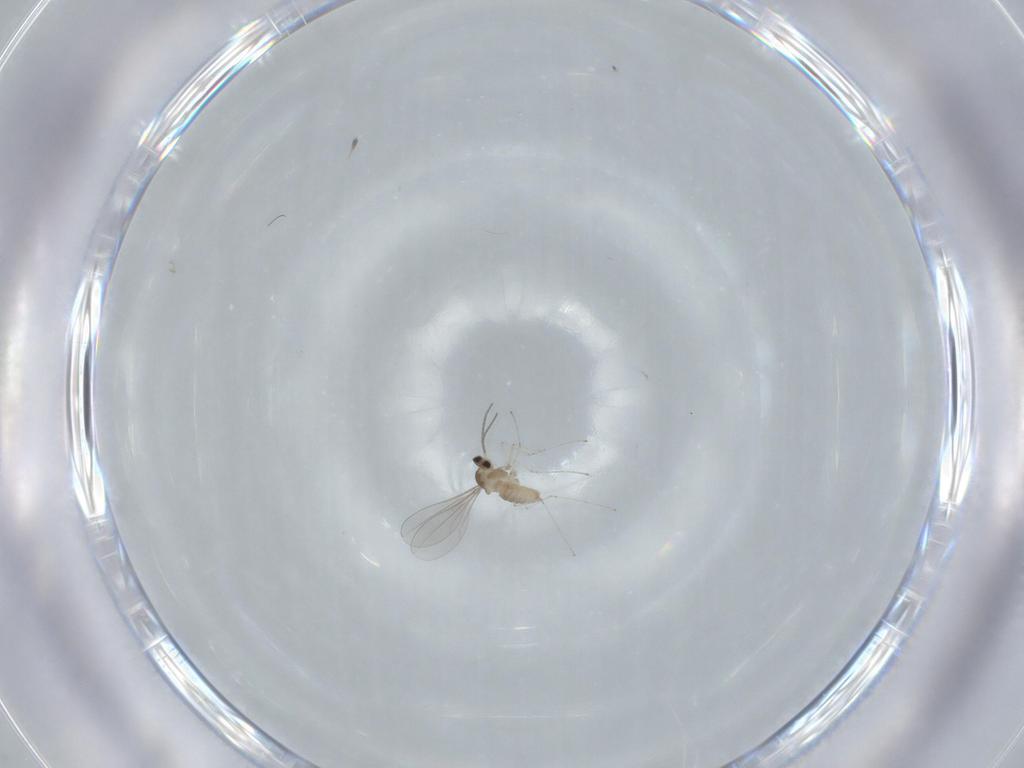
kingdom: Animalia
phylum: Arthropoda
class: Insecta
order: Diptera
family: Cecidomyiidae
